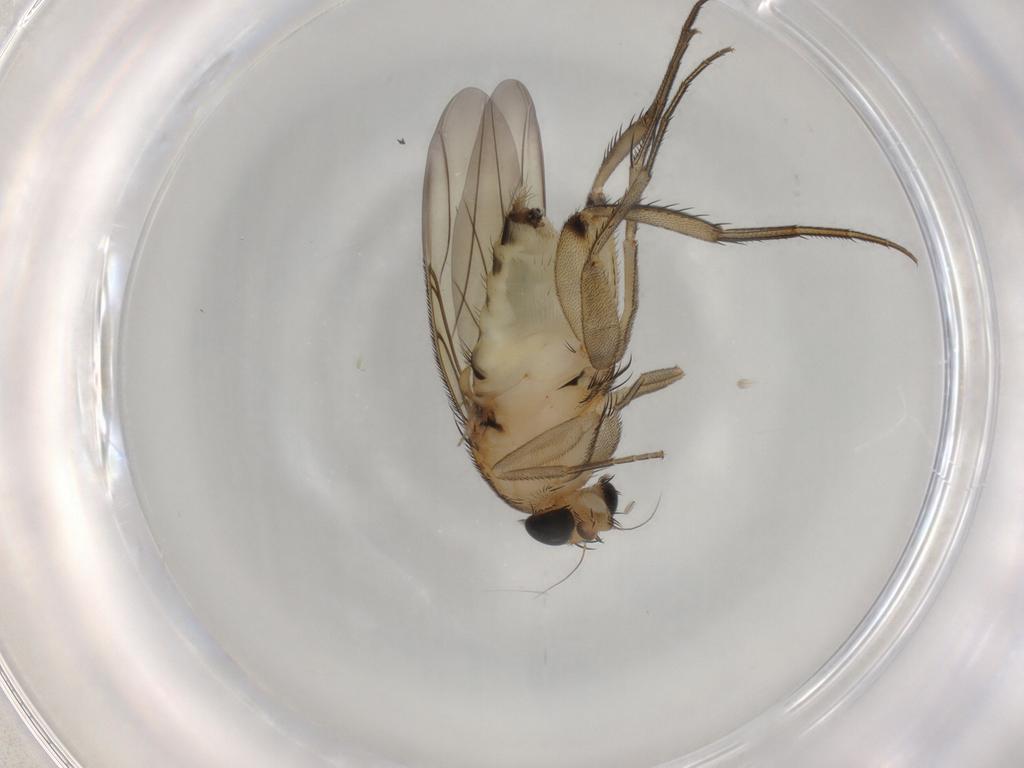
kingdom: Animalia
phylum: Arthropoda
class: Insecta
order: Diptera
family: Phoridae
